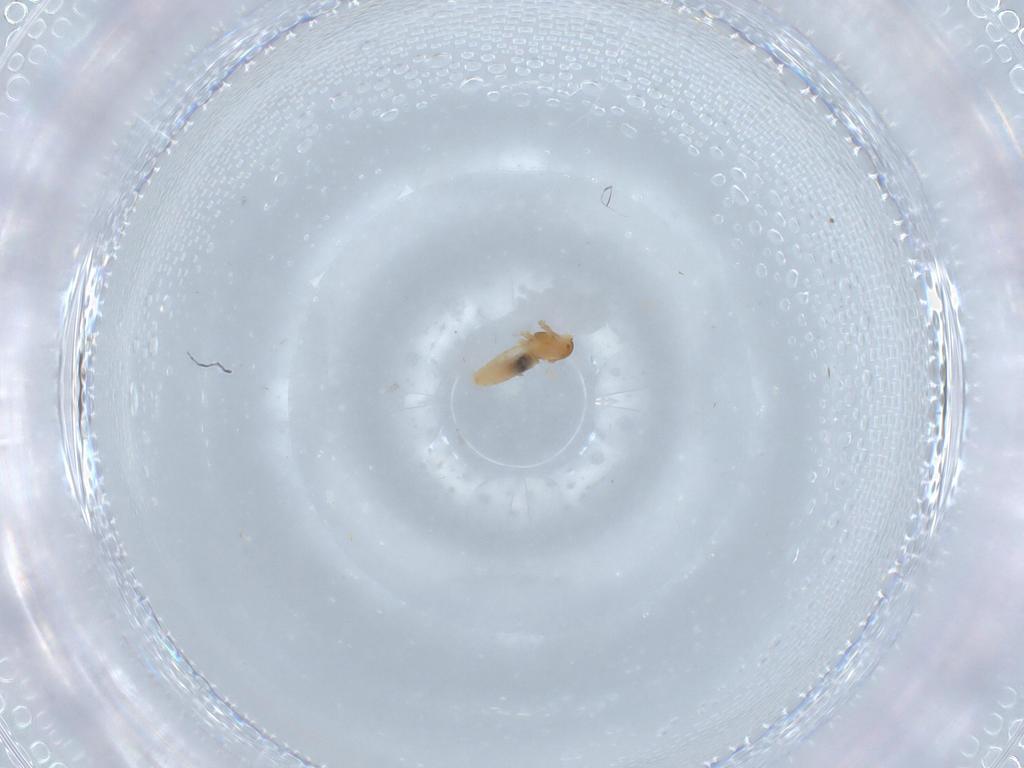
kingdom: Animalia
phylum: Arthropoda
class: Insecta
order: Diptera
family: Cecidomyiidae
